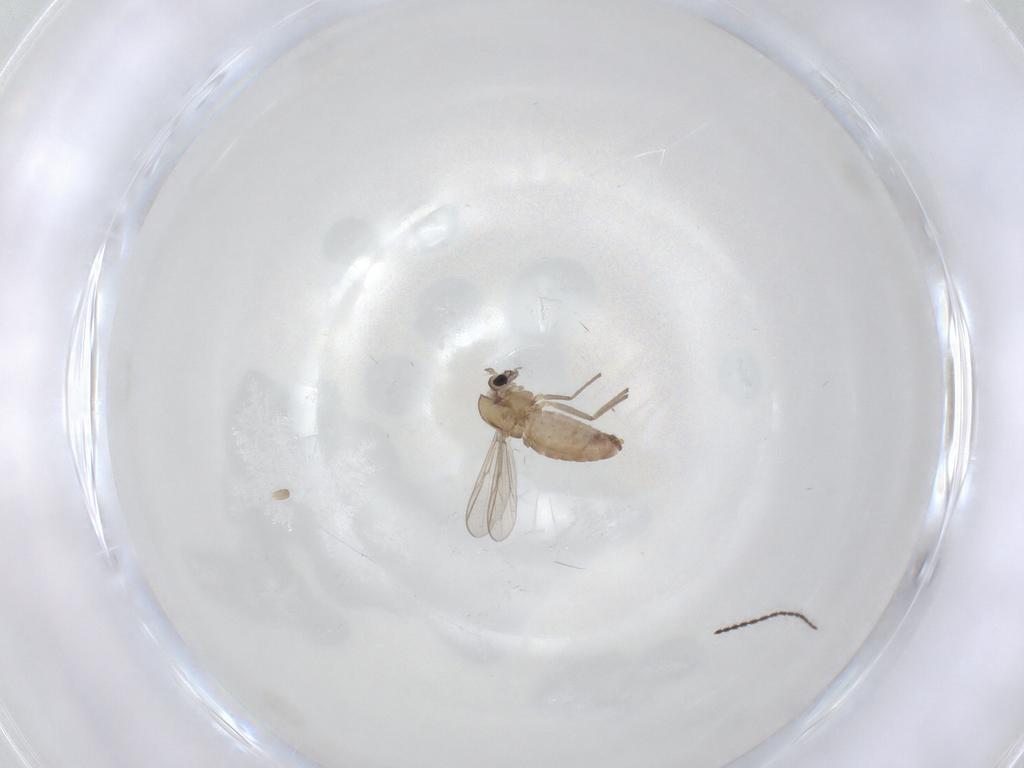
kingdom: Animalia
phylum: Arthropoda
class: Insecta
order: Diptera
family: Chironomidae
